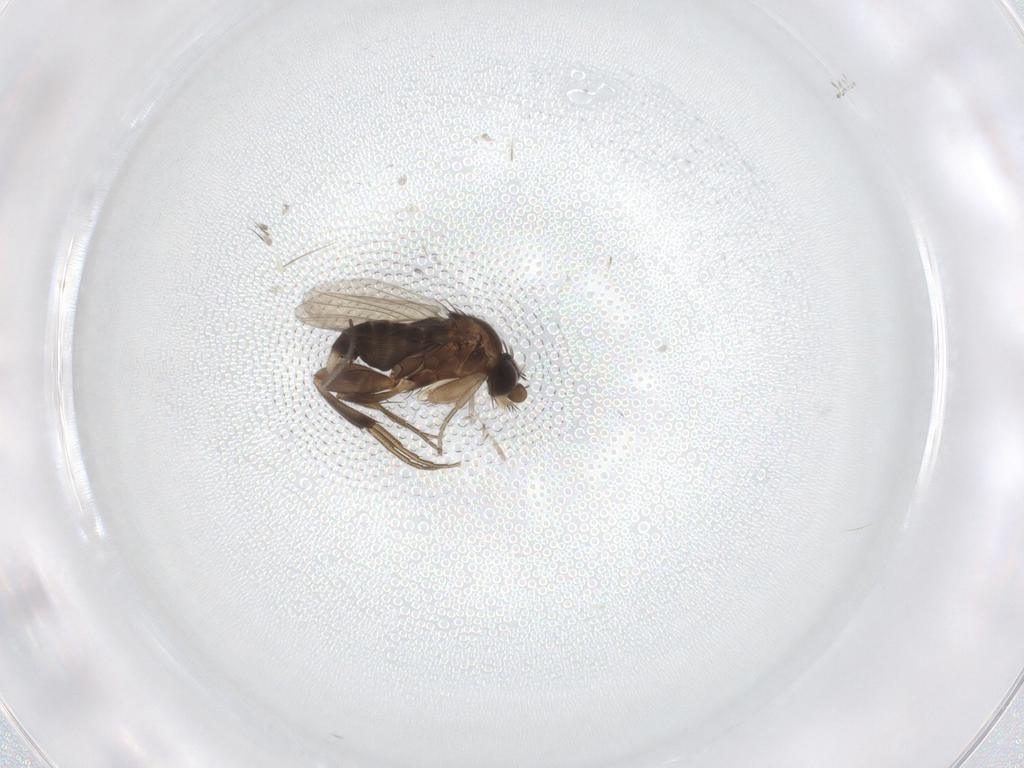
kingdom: Animalia
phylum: Arthropoda
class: Insecta
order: Diptera
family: Phoridae
